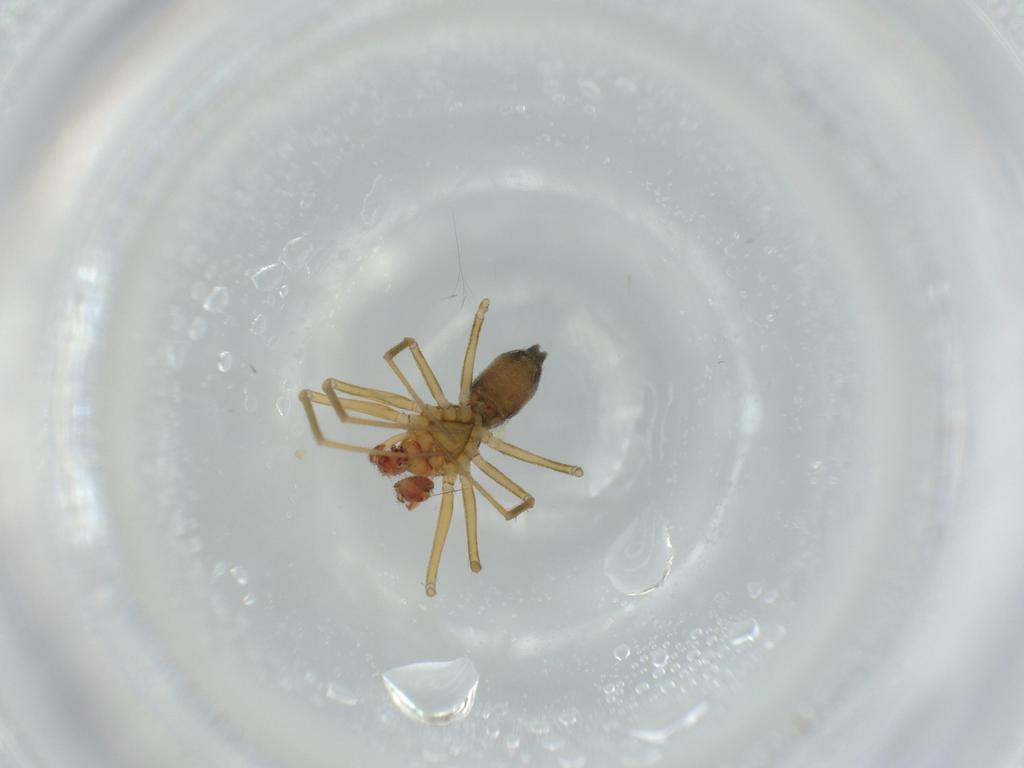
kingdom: Animalia
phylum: Arthropoda
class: Arachnida
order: Araneae
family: Linyphiidae
